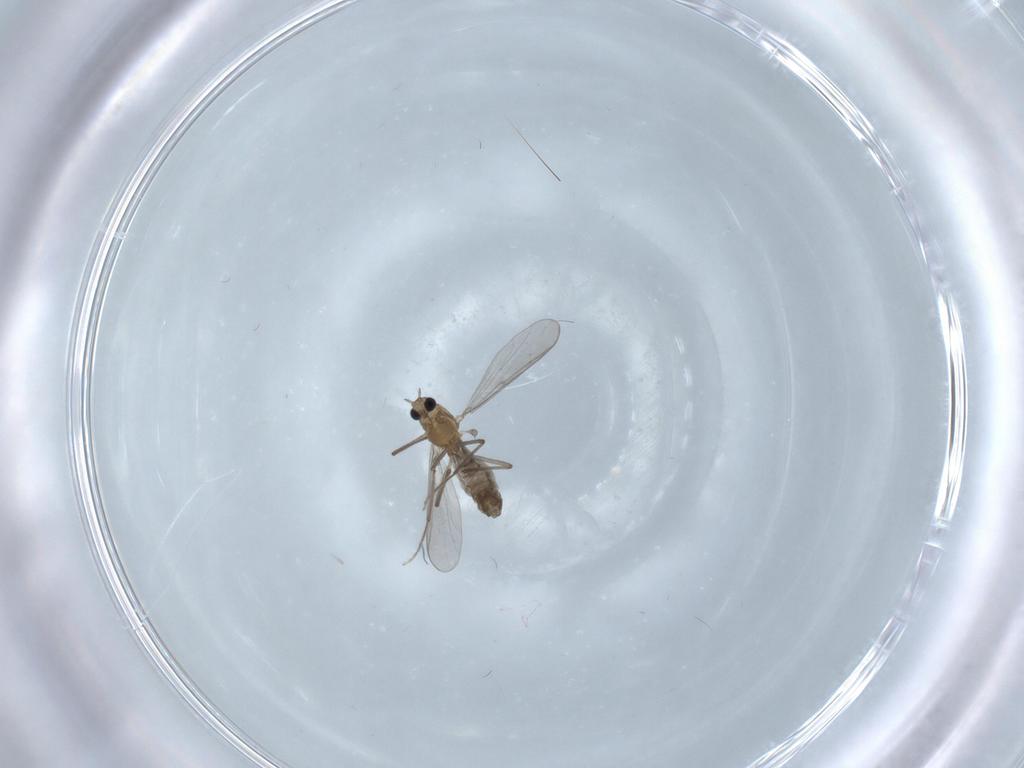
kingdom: Animalia
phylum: Arthropoda
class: Insecta
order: Diptera
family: Chironomidae
